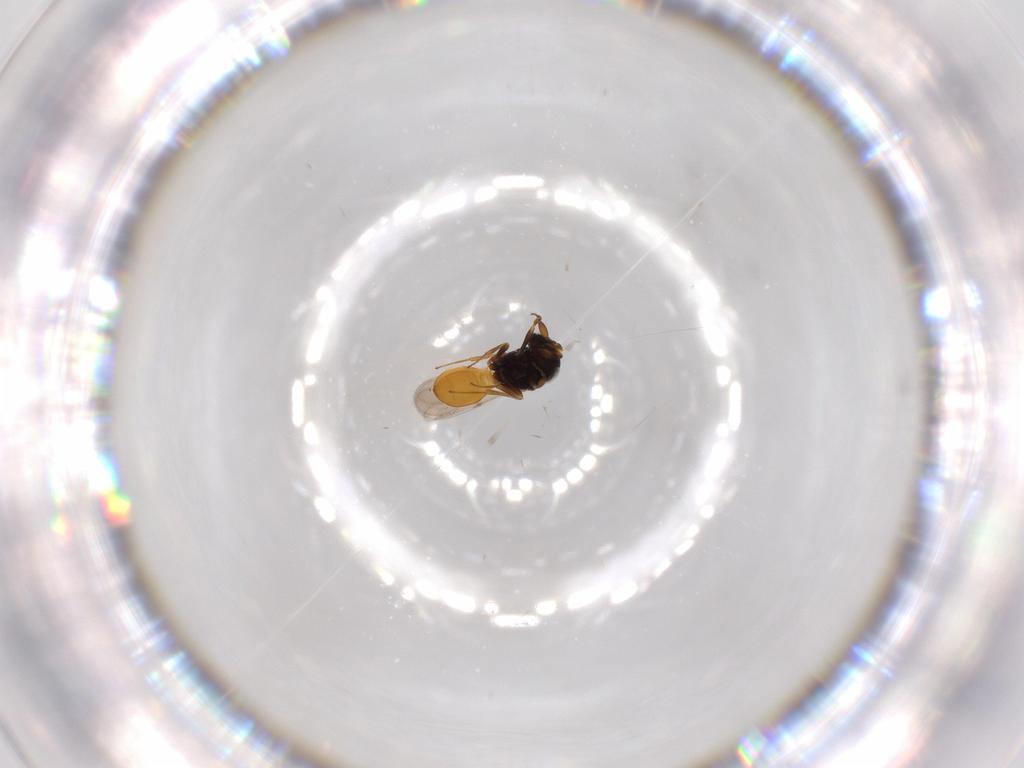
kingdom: Animalia
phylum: Arthropoda
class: Insecta
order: Hymenoptera
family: Scelionidae
